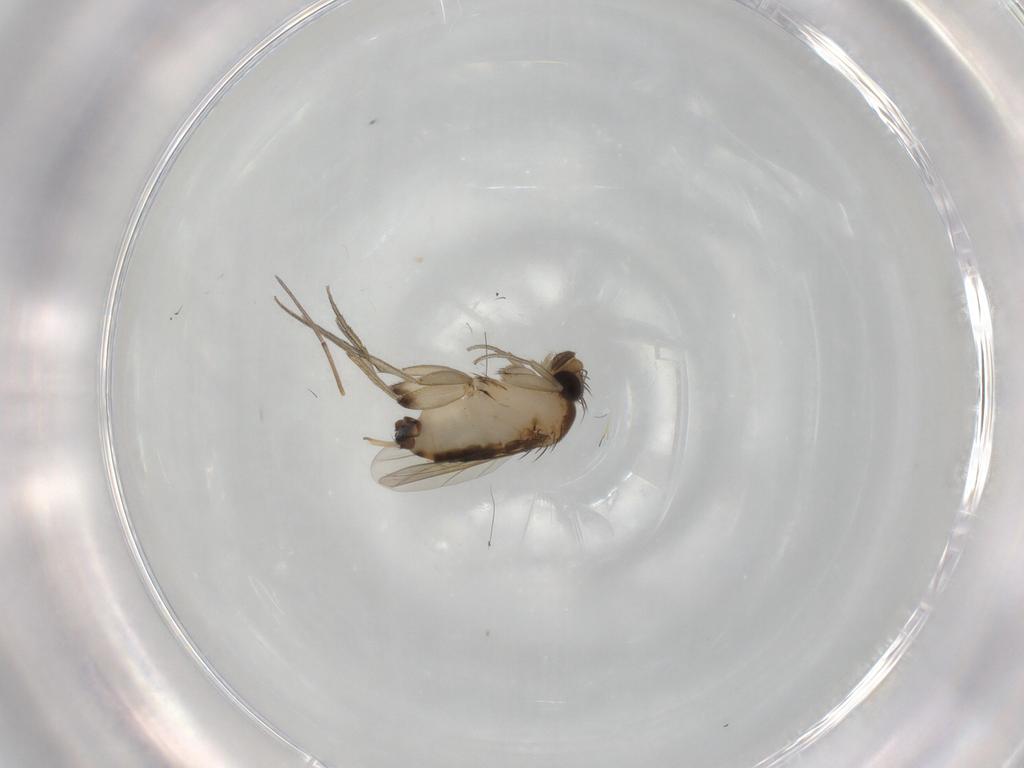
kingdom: Animalia
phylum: Arthropoda
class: Insecta
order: Diptera
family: Phoridae
